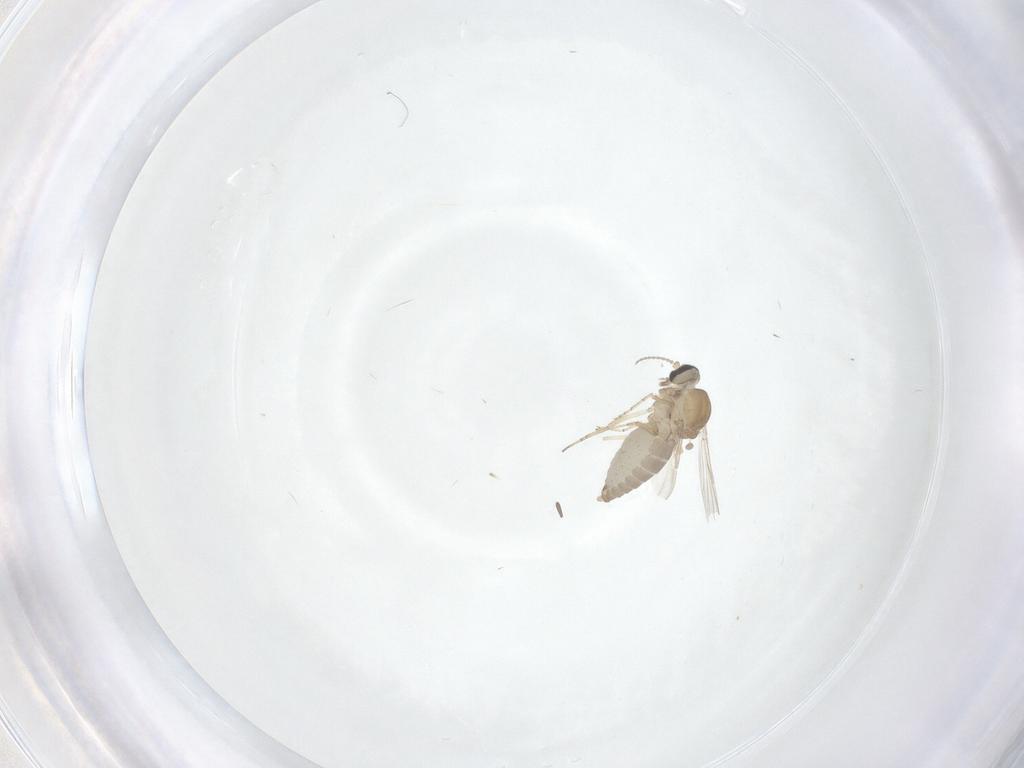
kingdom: Animalia
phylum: Arthropoda
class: Insecta
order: Diptera
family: Ceratopogonidae
